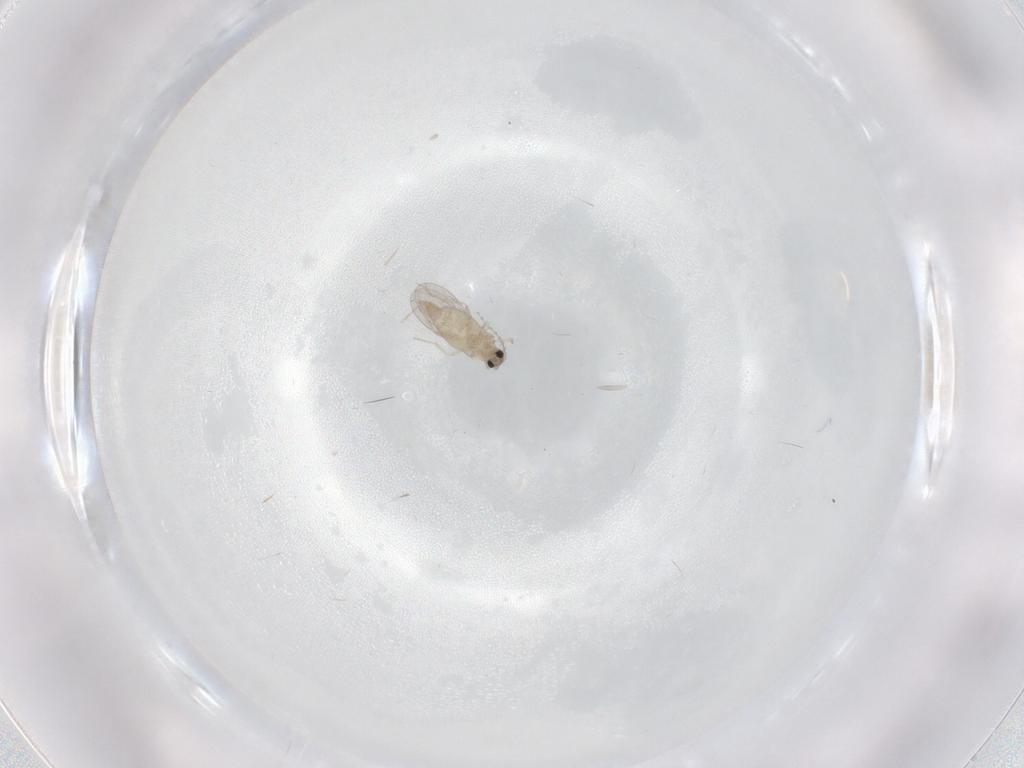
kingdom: Animalia
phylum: Arthropoda
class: Insecta
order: Diptera
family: Cecidomyiidae
